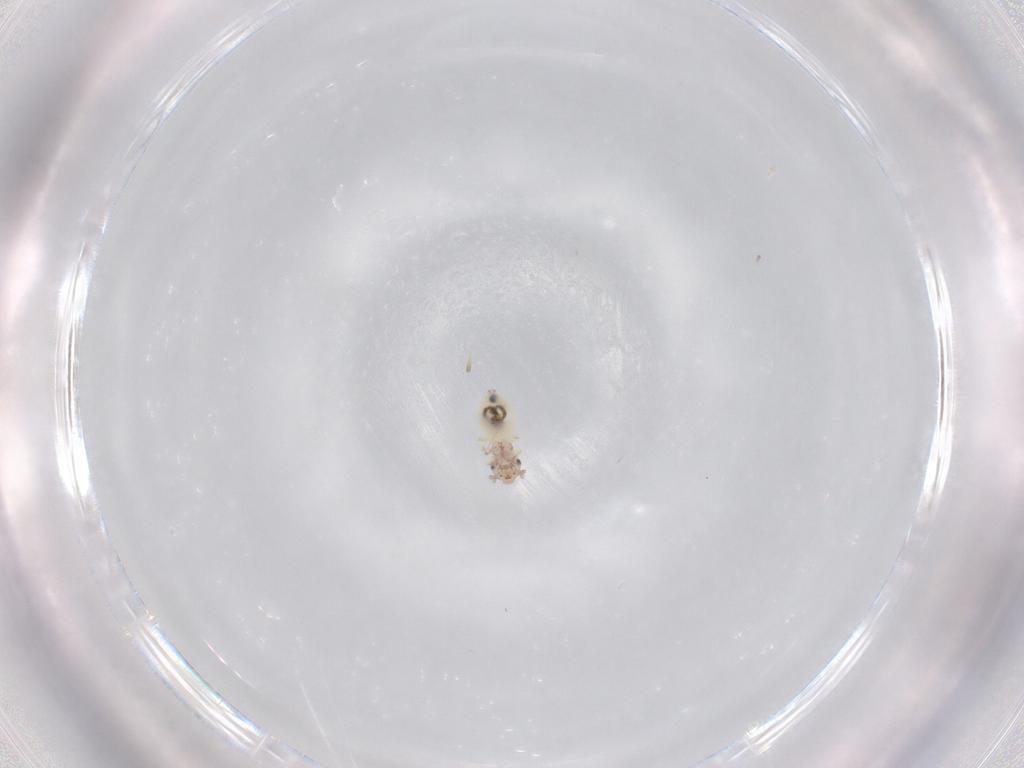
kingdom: Animalia
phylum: Arthropoda
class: Insecta
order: Psocodea
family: Lepidopsocidae
